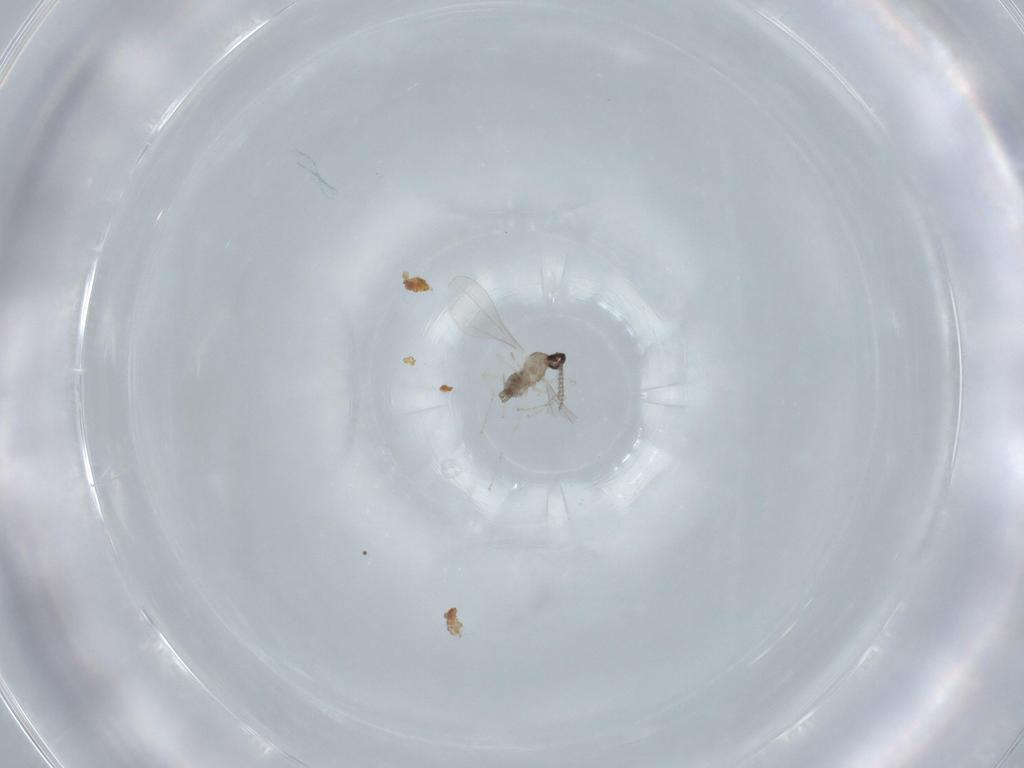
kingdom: Animalia
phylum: Arthropoda
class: Insecta
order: Diptera
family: Cecidomyiidae
